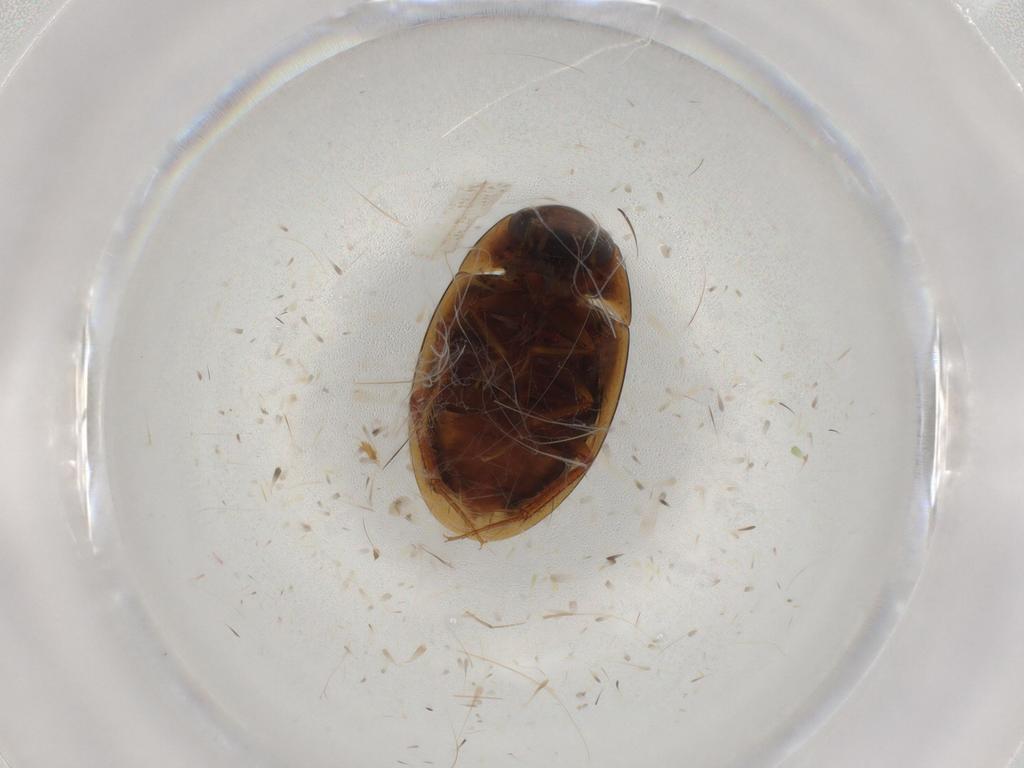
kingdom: Animalia
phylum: Arthropoda
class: Insecta
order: Coleoptera
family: Hydrophilidae
